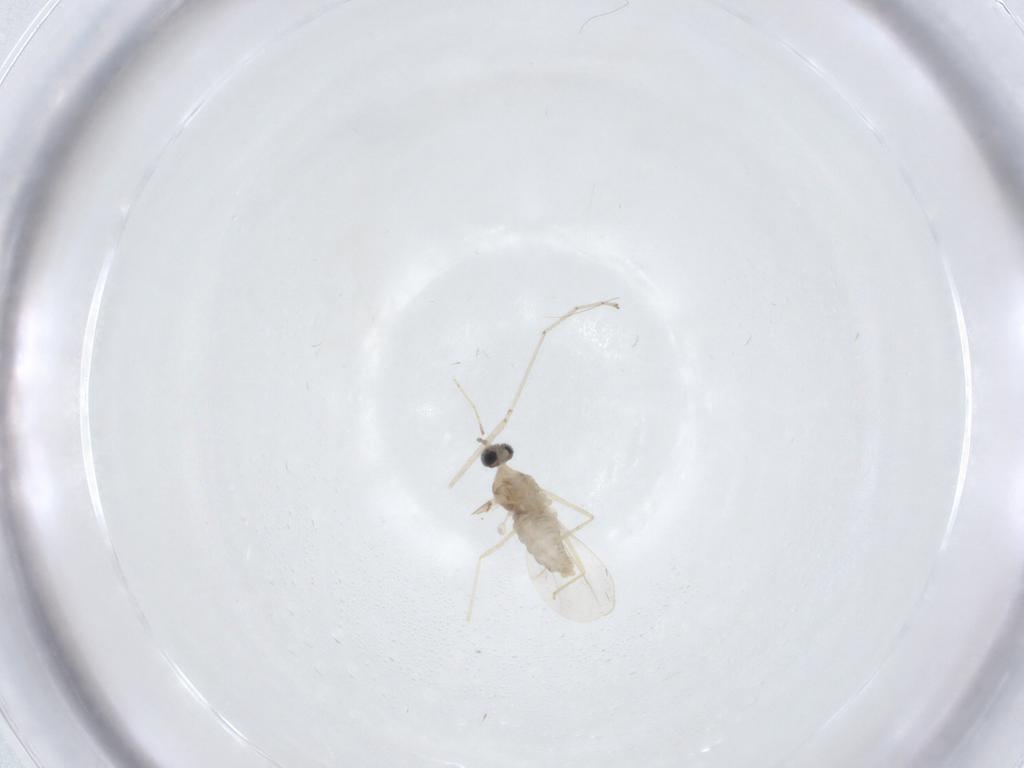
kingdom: Animalia
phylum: Arthropoda
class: Insecta
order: Diptera
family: Cecidomyiidae
